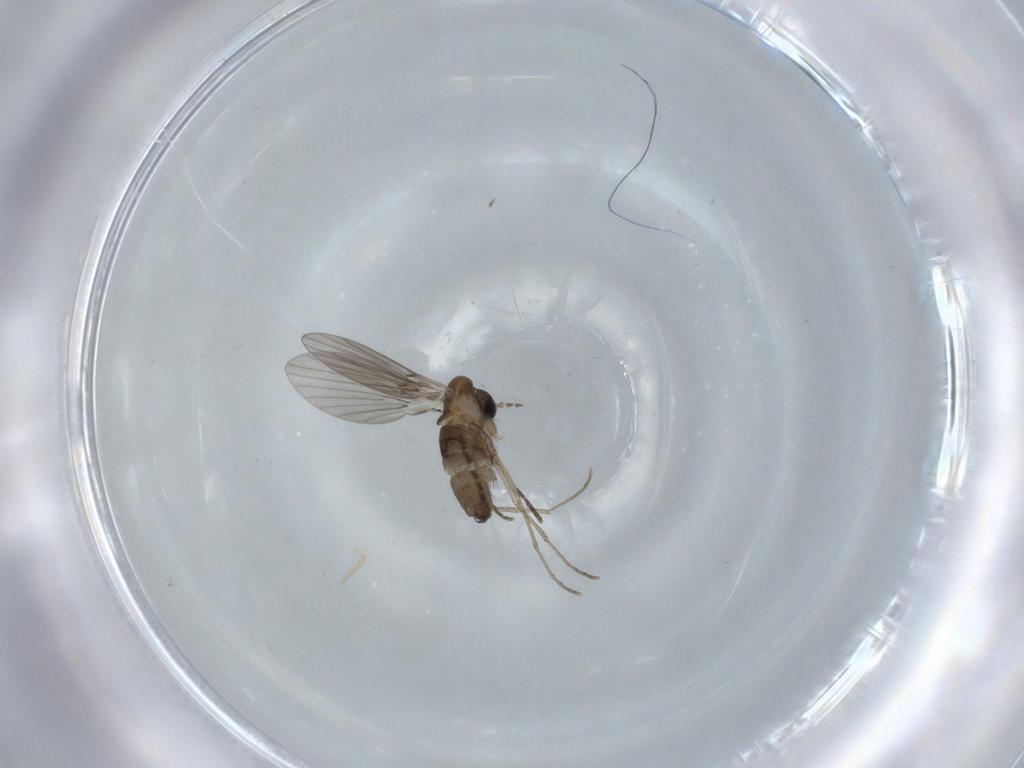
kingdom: Animalia
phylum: Arthropoda
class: Insecta
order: Diptera
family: Psychodidae
